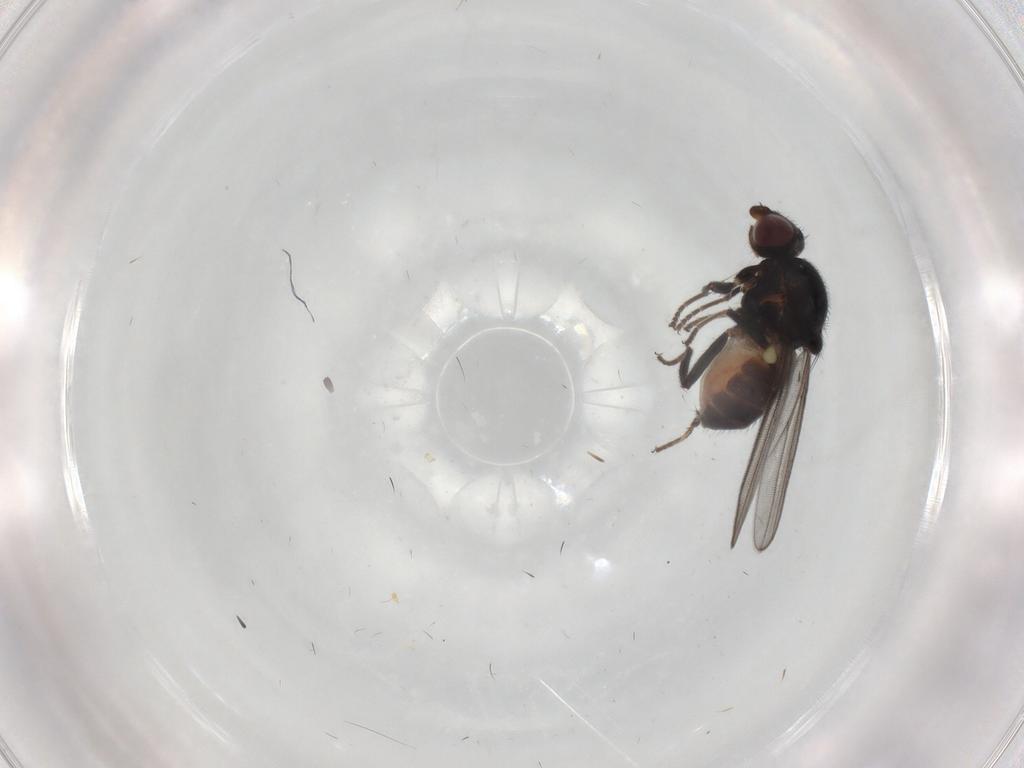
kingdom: Animalia
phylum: Arthropoda
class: Insecta
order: Diptera
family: Chloropidae
